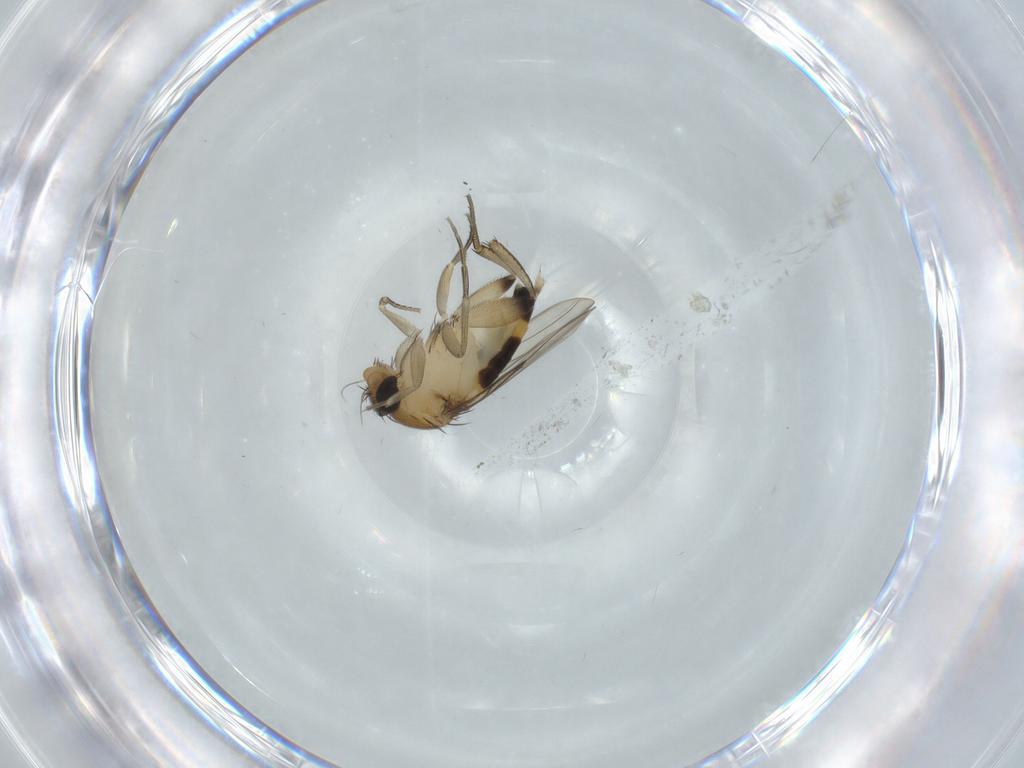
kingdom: Animalia
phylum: Arthropoda
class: Insecta
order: Diptera
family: Phoridae
